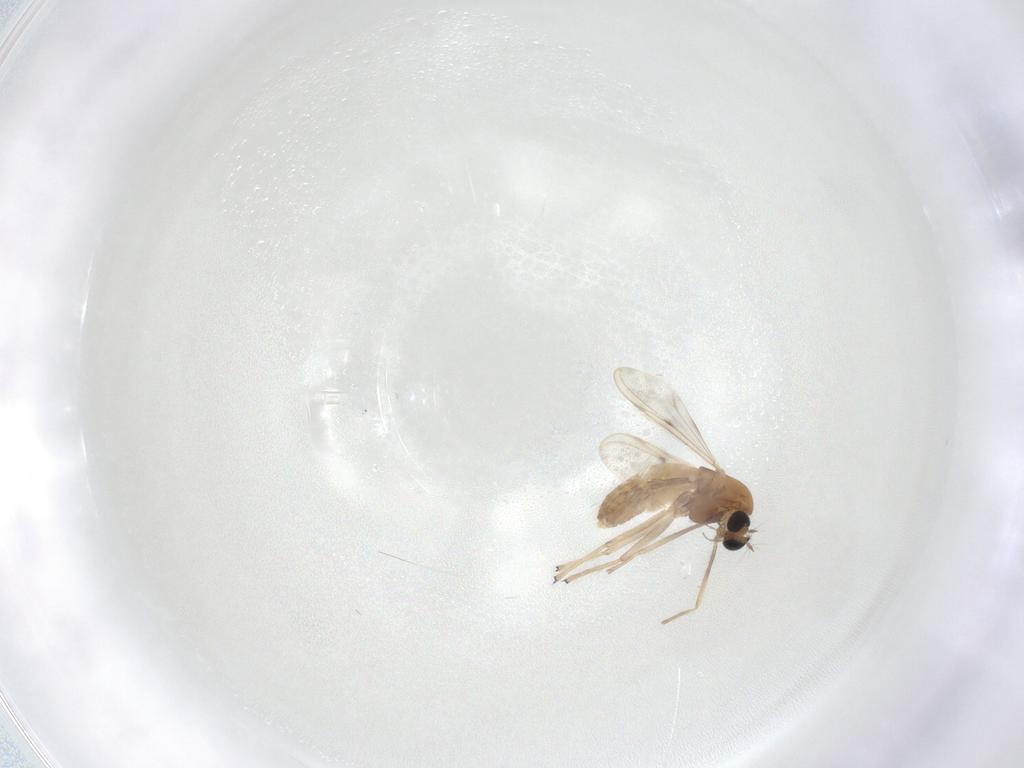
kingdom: Animalia
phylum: Arthropoda
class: Insecta
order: Diptera
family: Chironomidae
